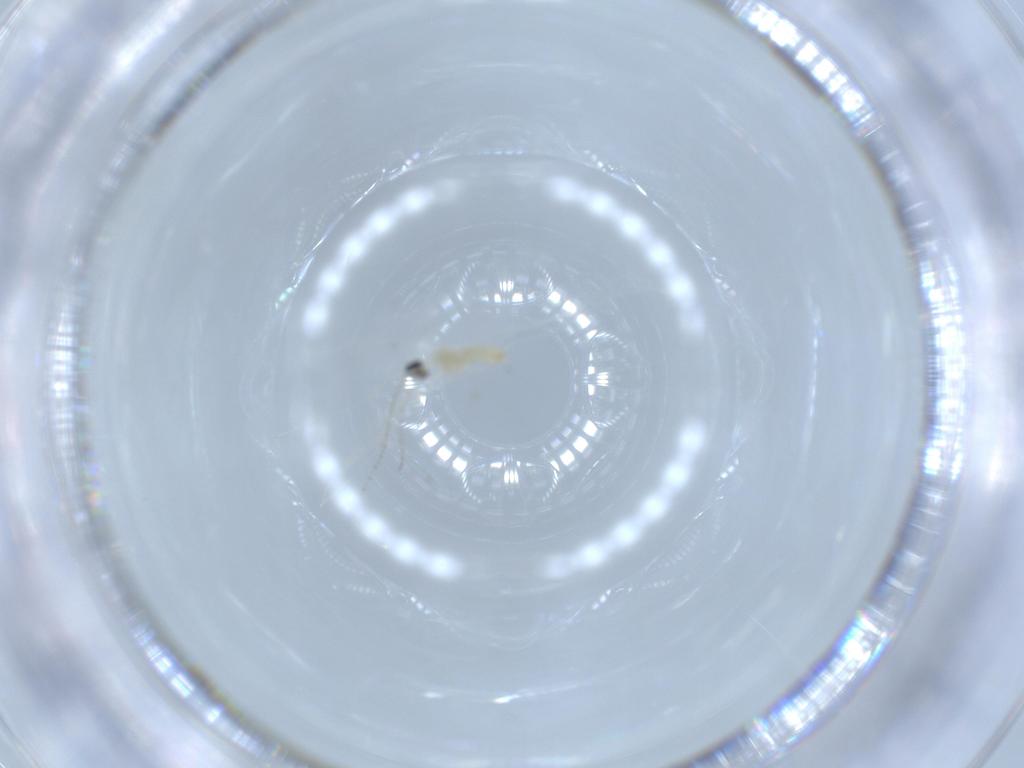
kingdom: Animalia
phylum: Arthropoda
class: Insecta
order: Diptera
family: Cecidomyiidae
